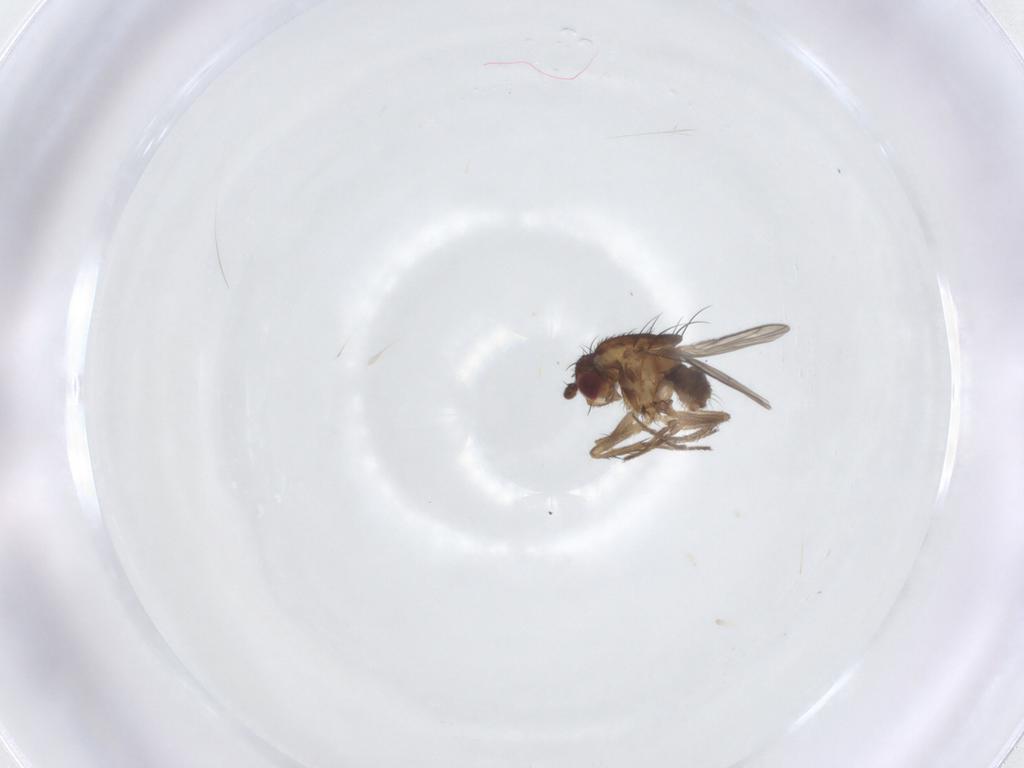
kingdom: Animalia
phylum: Arthropoda
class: Insecta
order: Diptera
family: Sphaeroceridae
